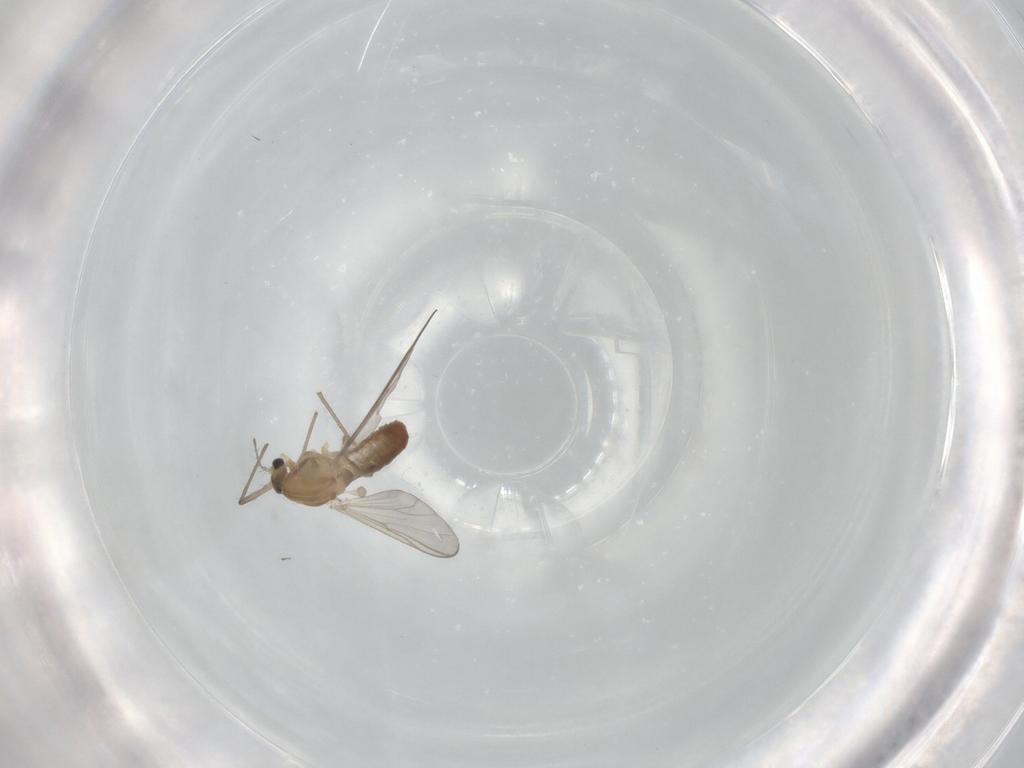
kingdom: Animalia
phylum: Arthropoda
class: Insecta
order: Diptera
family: Chironomidae
